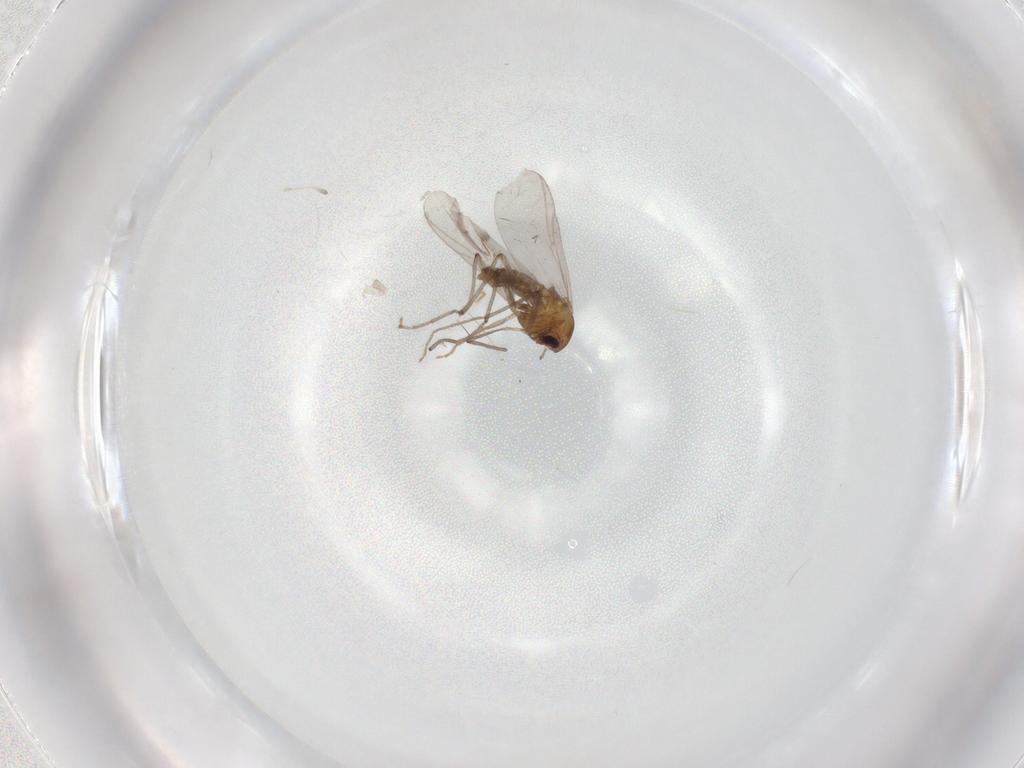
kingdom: Animalia
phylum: Arthropoda
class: Insecta
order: Diptera
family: Chironomidae
